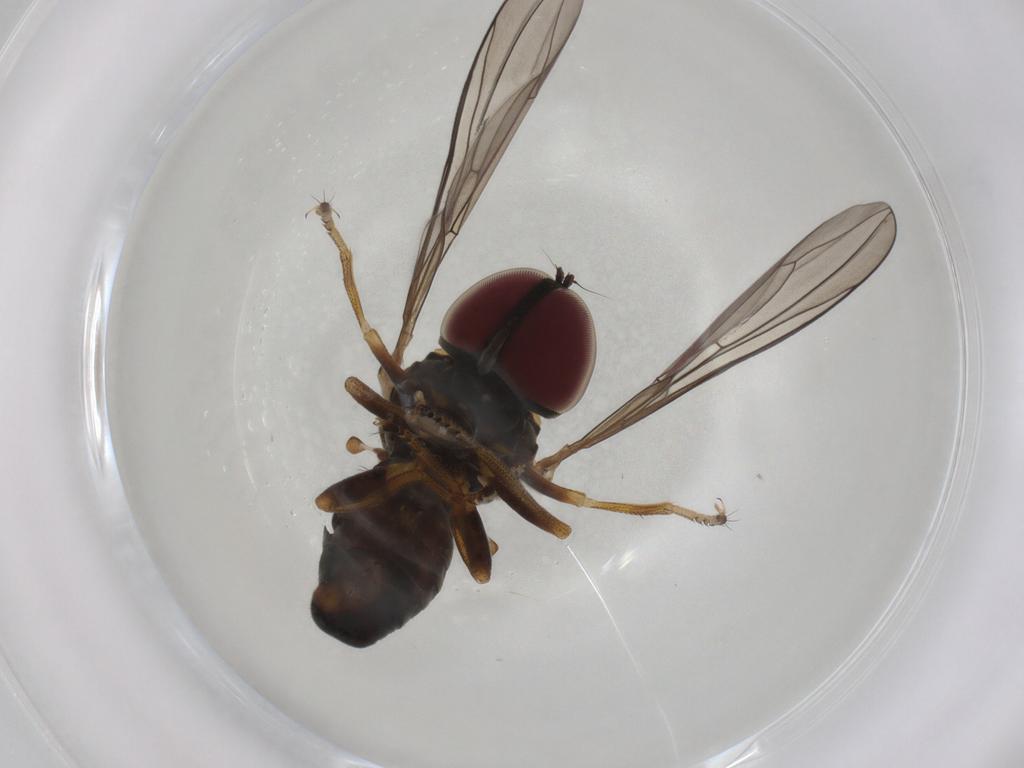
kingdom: Animalia
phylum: Arthropoda
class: Insecta
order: Diptera
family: Pipunculidae
